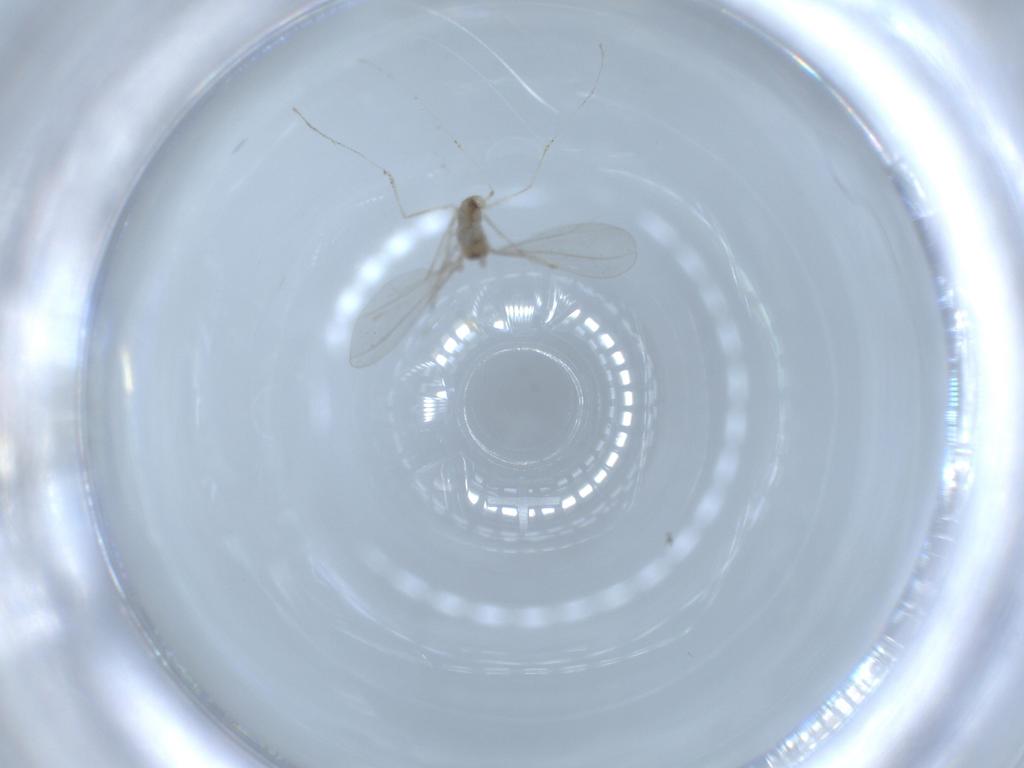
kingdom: Animalia
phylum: Arthropoda
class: Insecta
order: Diptera
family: Cecidomyiidae
